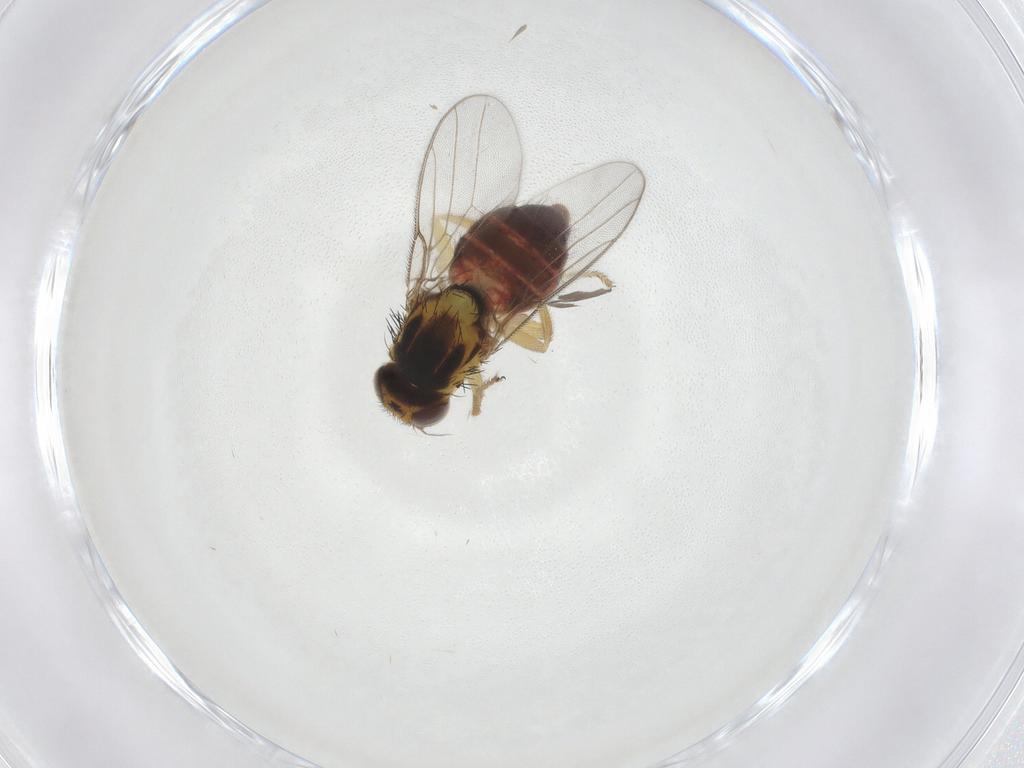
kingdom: Animalia
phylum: Arthropoda
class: Insecta
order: Diptera
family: Chloropidae
